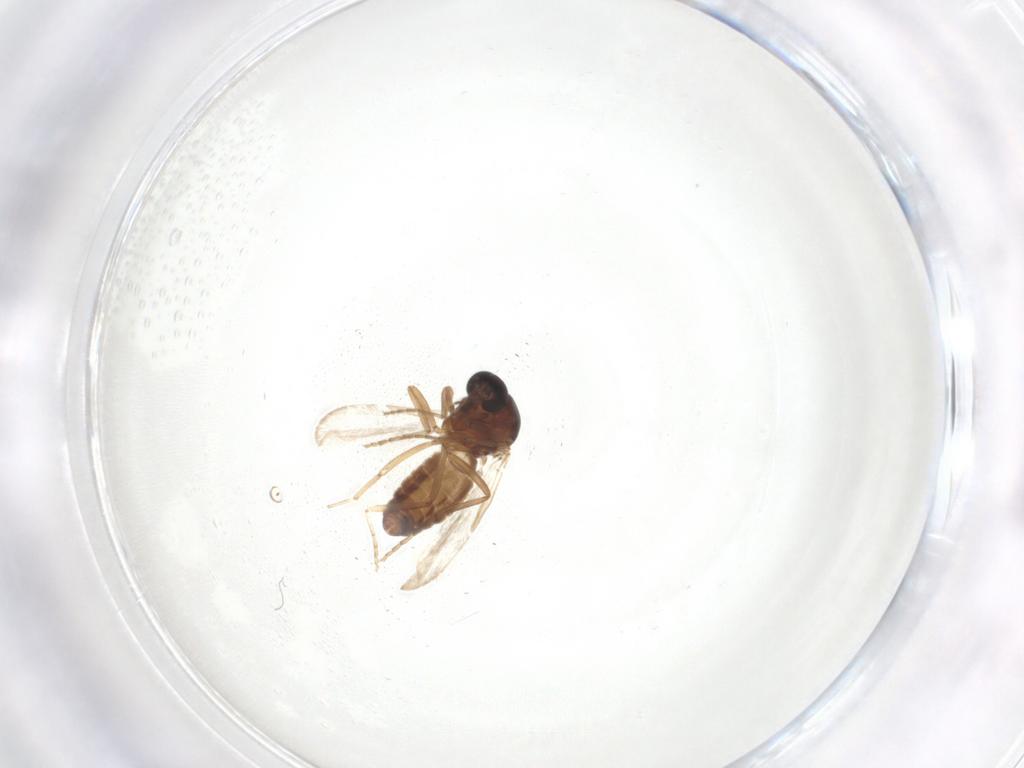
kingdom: Animalia
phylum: Arthropoda
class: Insecta
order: Diptera
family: Ceratopogonidae
